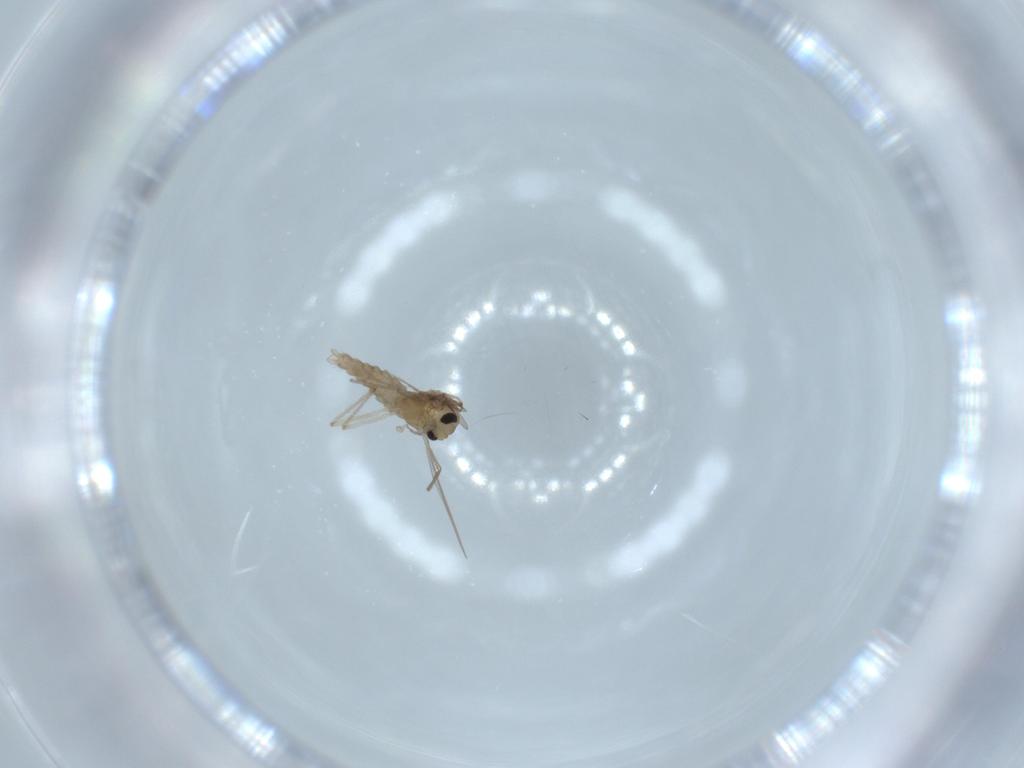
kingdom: Animalia
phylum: Arthropoda
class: Insecta
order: Diptera
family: Chironomidae
